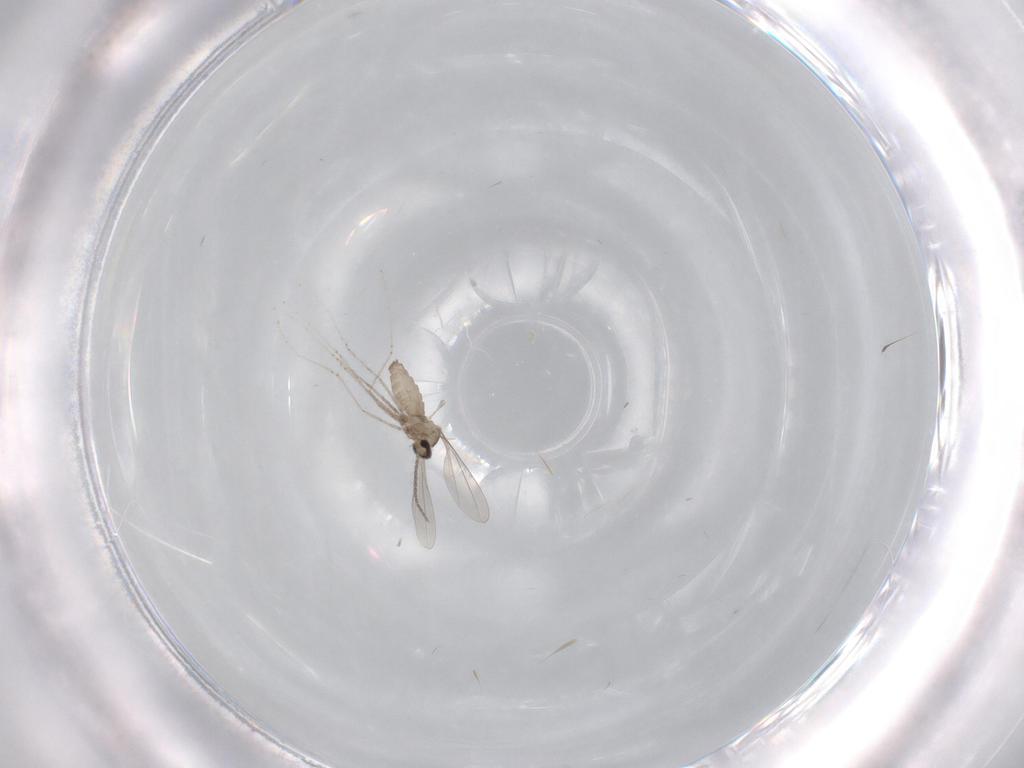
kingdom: Animalia
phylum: Arthropoda
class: Insecta
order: Diptera
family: Cecidomyiidae
